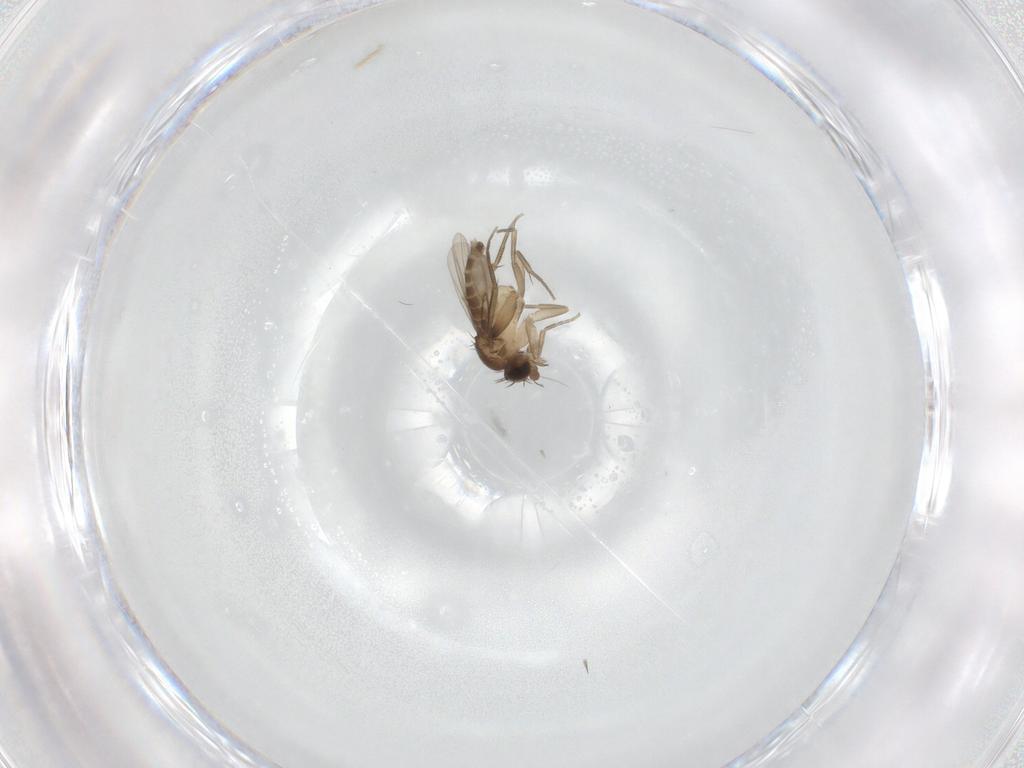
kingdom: Animalia
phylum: Arthropoda
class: Insecta
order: Diptera
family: Phoridae
